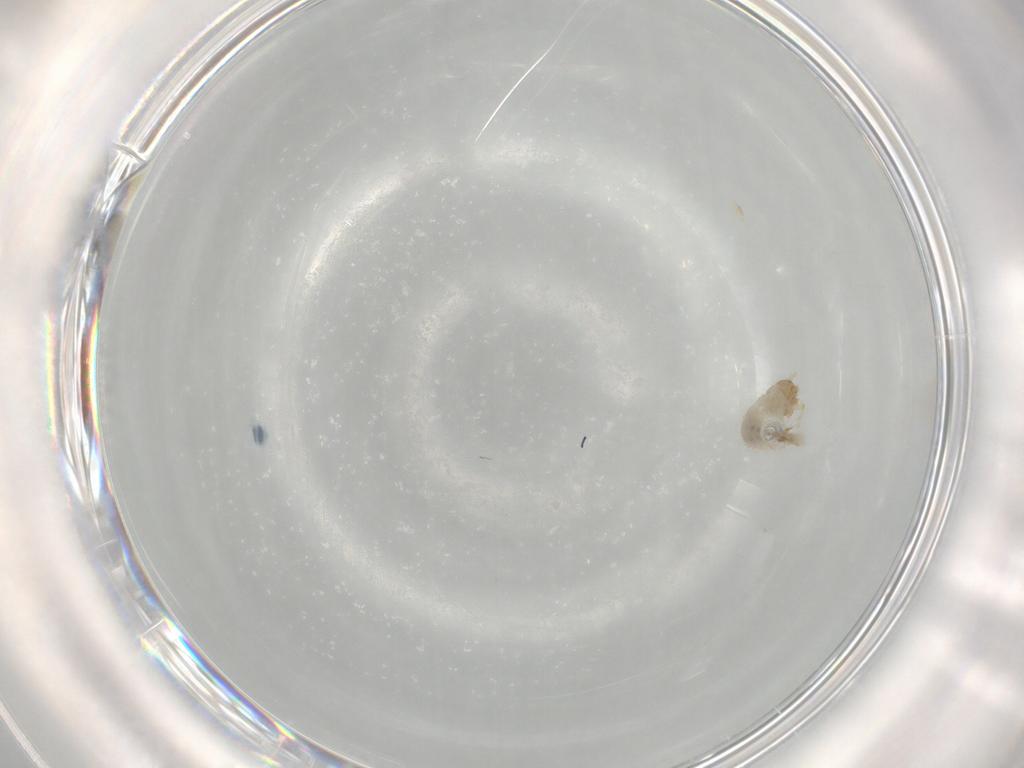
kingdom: Animalia
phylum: Arthropoda
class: Insecta
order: Coleoptera
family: Staphylinidae
